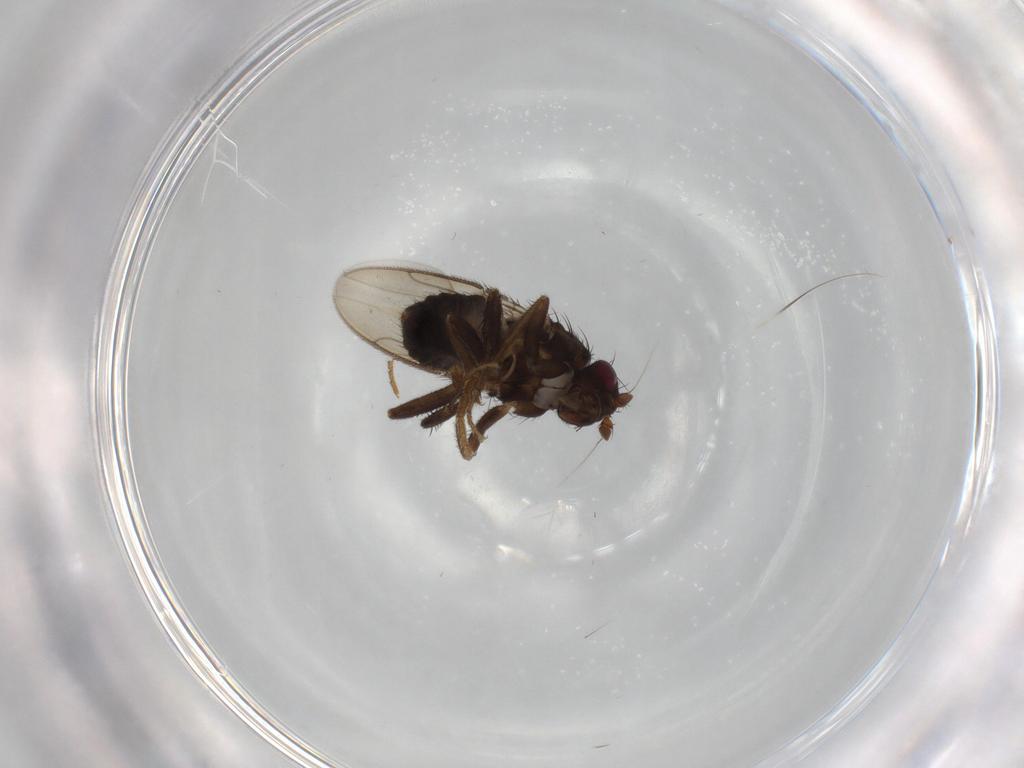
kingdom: Animalia
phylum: Arthropoda
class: Insecta
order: Diptera
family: Sphaeroceridae
